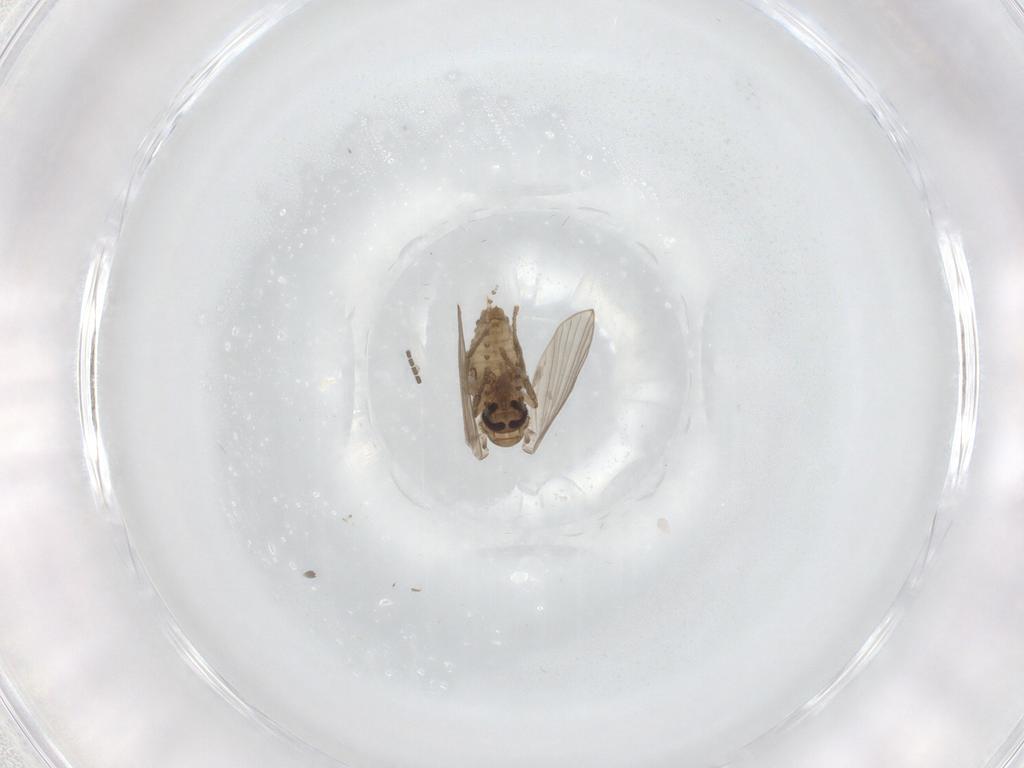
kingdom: Animalia
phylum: Arthropoda
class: Insecta
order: Diptera
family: Psychodidae
